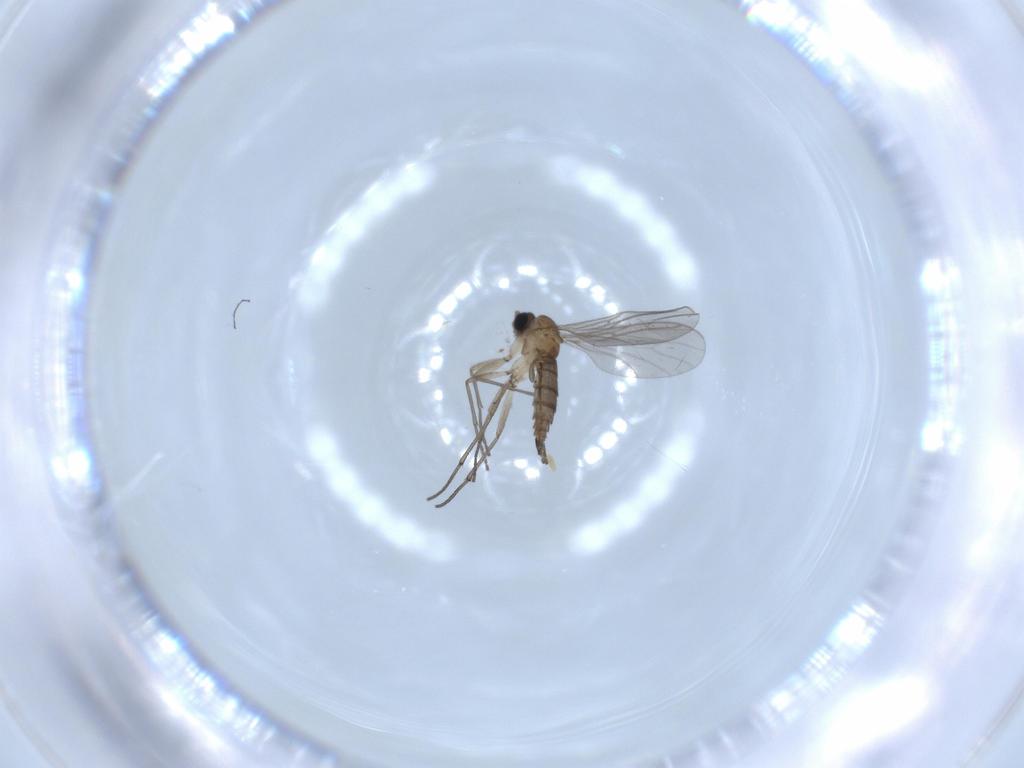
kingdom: Animalia
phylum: Arthropoda
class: Insecta
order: Diptera
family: Sciaridae
